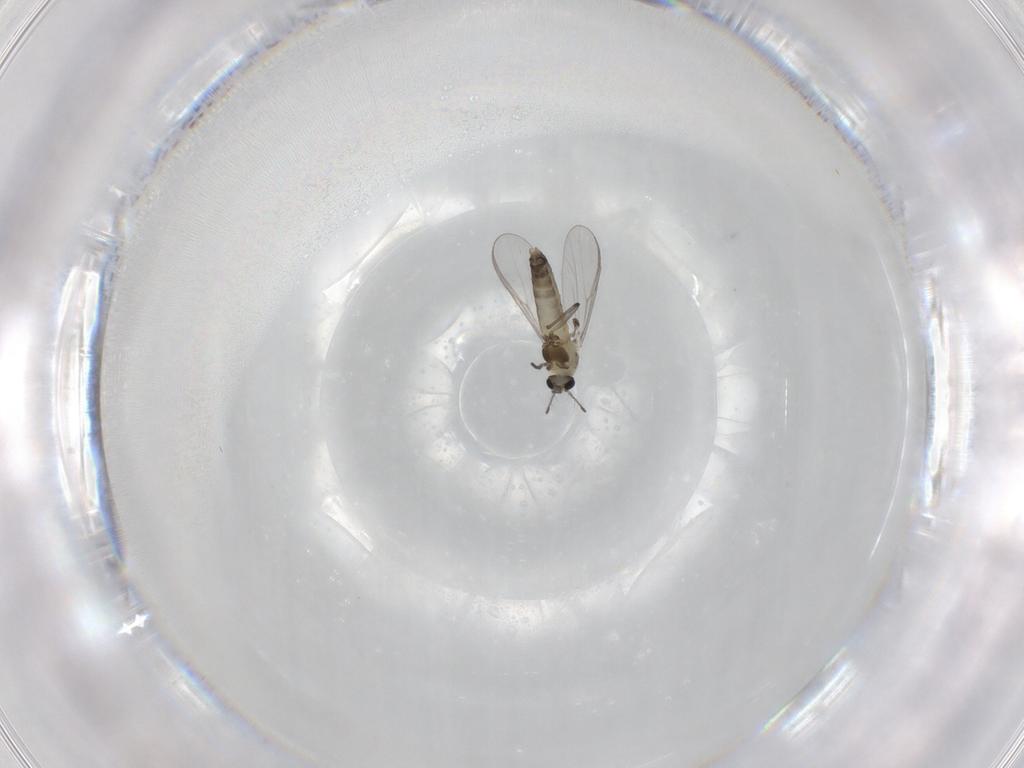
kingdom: Animalia
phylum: Arthropoda
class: Insecta
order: Diptera
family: Chironomidae
